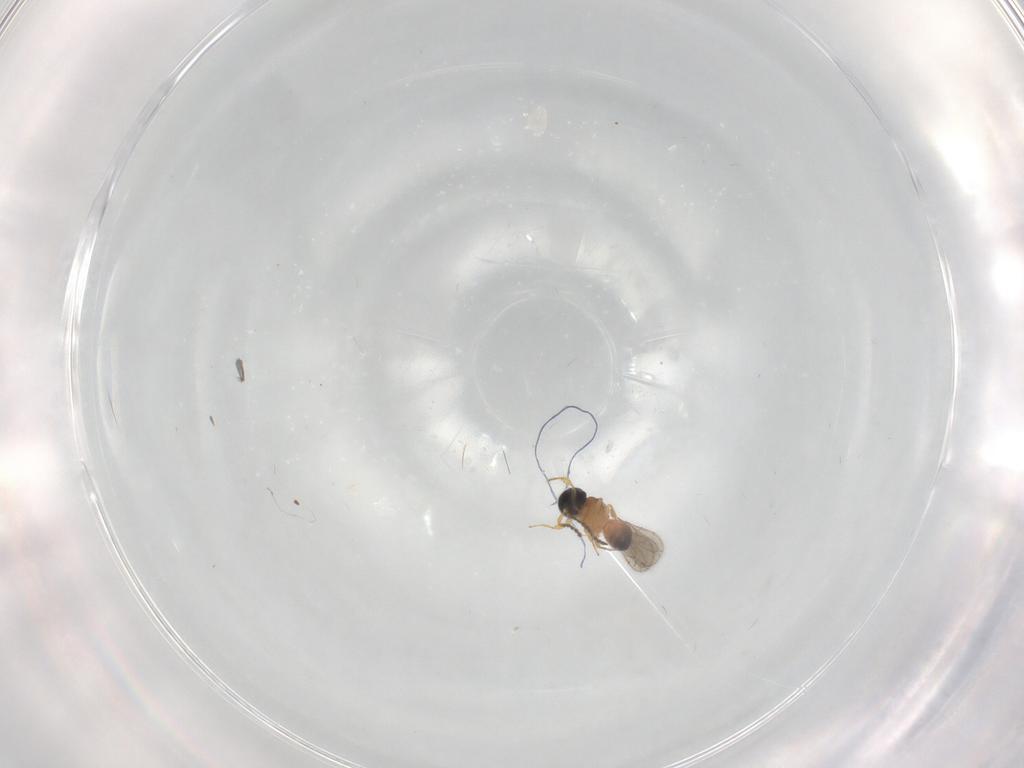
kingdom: Animalia
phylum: Arthropoda
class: Insecta
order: Hymenoptera
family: Scelionidae
